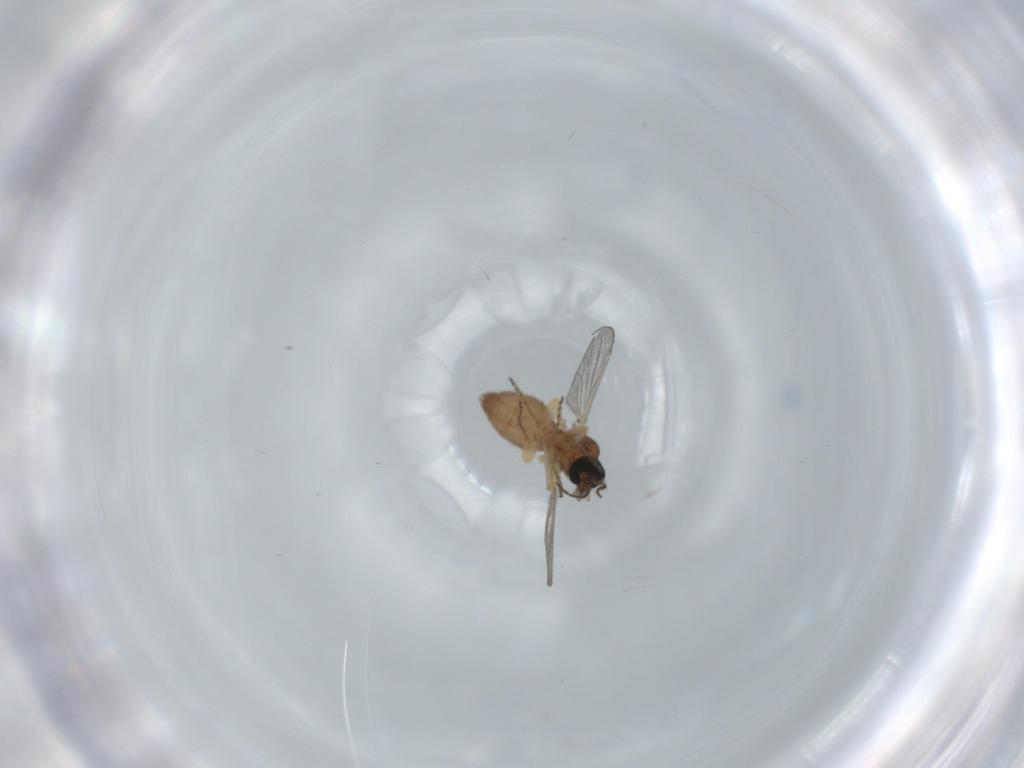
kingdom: Animalia
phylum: Arthropoda
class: Insecta
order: Diptera
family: Ceratopogonidae
